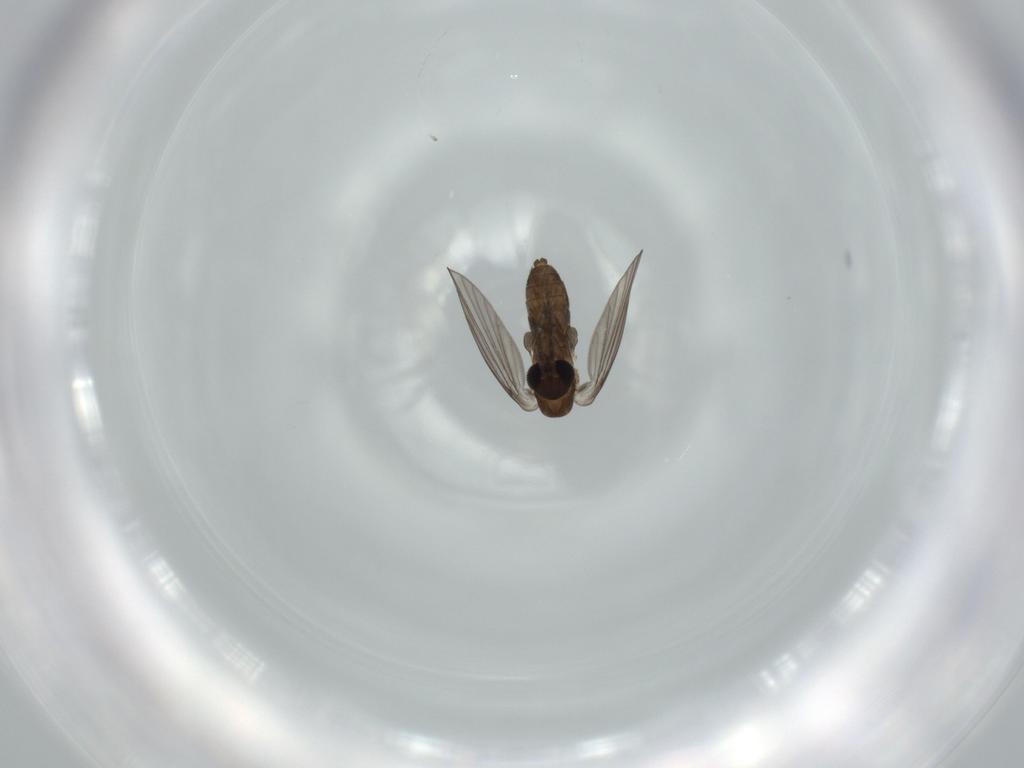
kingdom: Animalia
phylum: Arthropoda
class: Insecta
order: Diptera
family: Psychodidae
